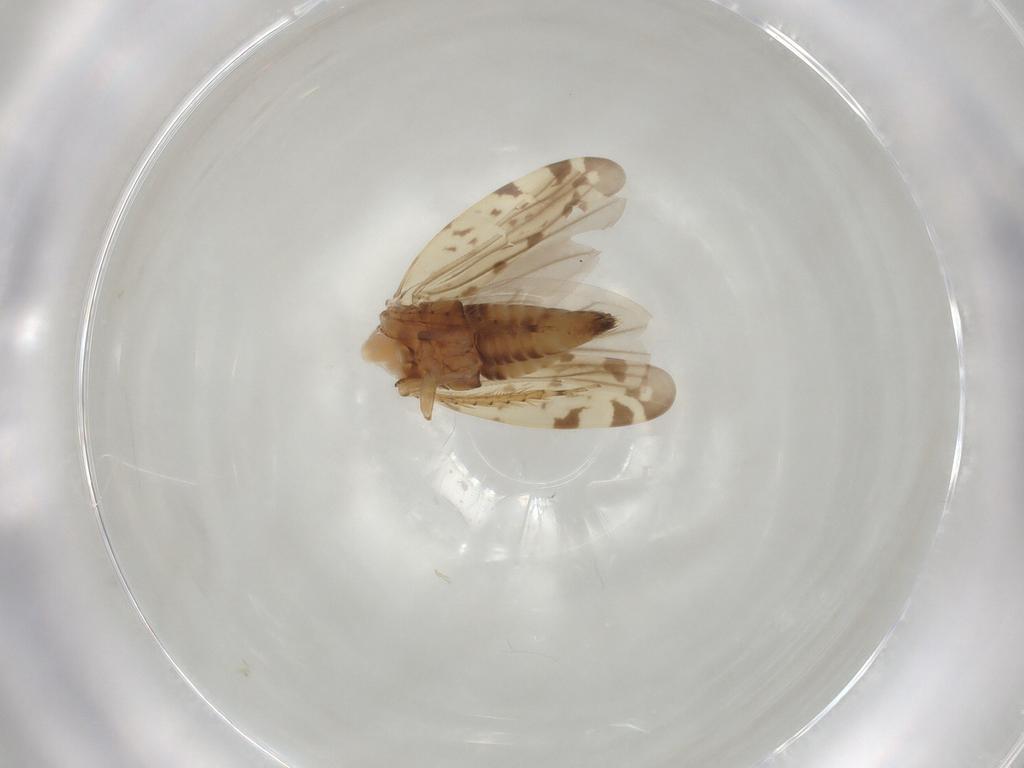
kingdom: Animalia
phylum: Arthropoda
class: Insecta
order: Hemiptera
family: Cicadellidae
